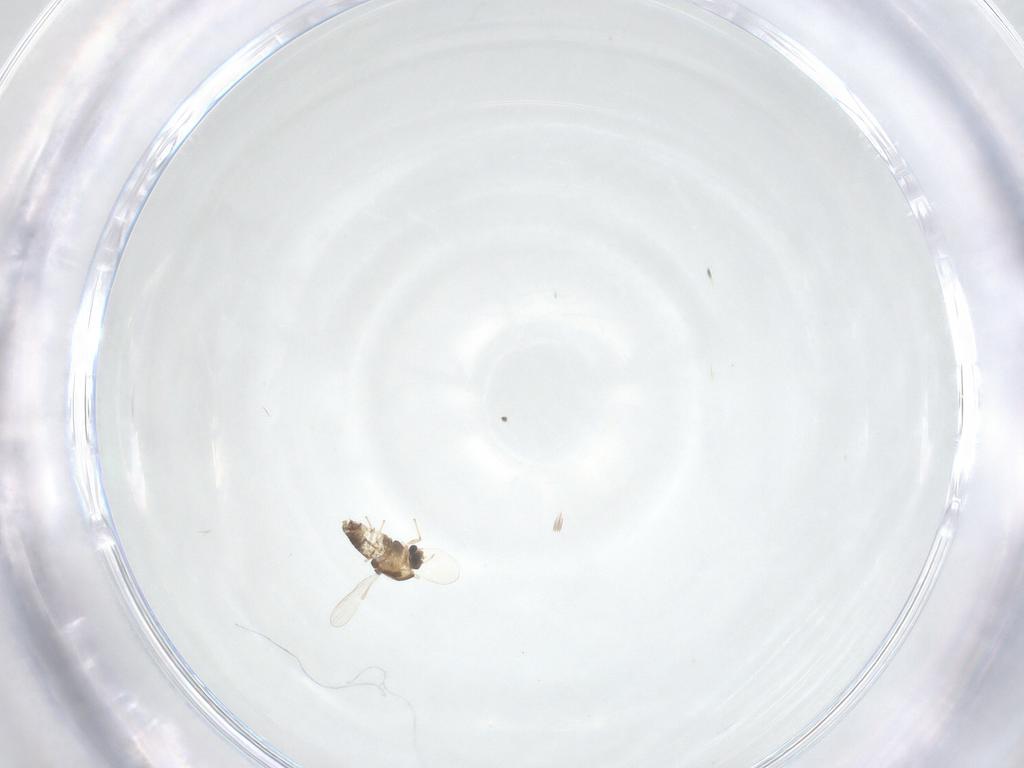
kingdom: Animalia
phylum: Arthropoda
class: Insecta
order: Diptera
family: Chironomidae
